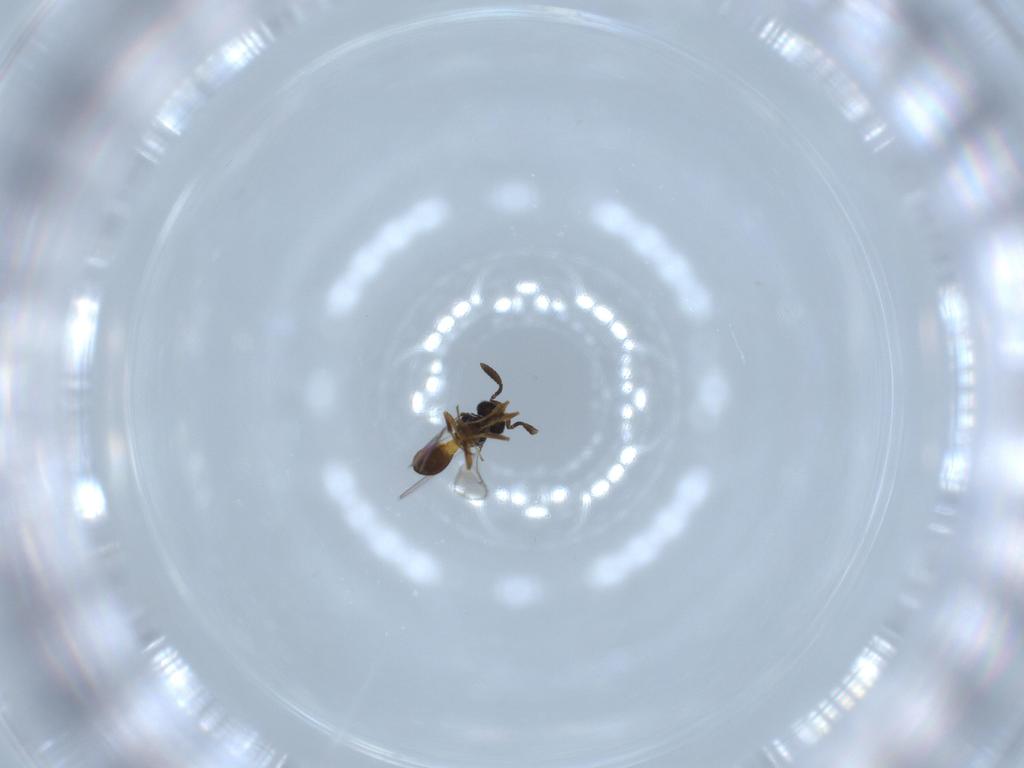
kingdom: Animalia
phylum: Arthropoda
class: Insecta
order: Hymenoptera
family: Scelionidae
